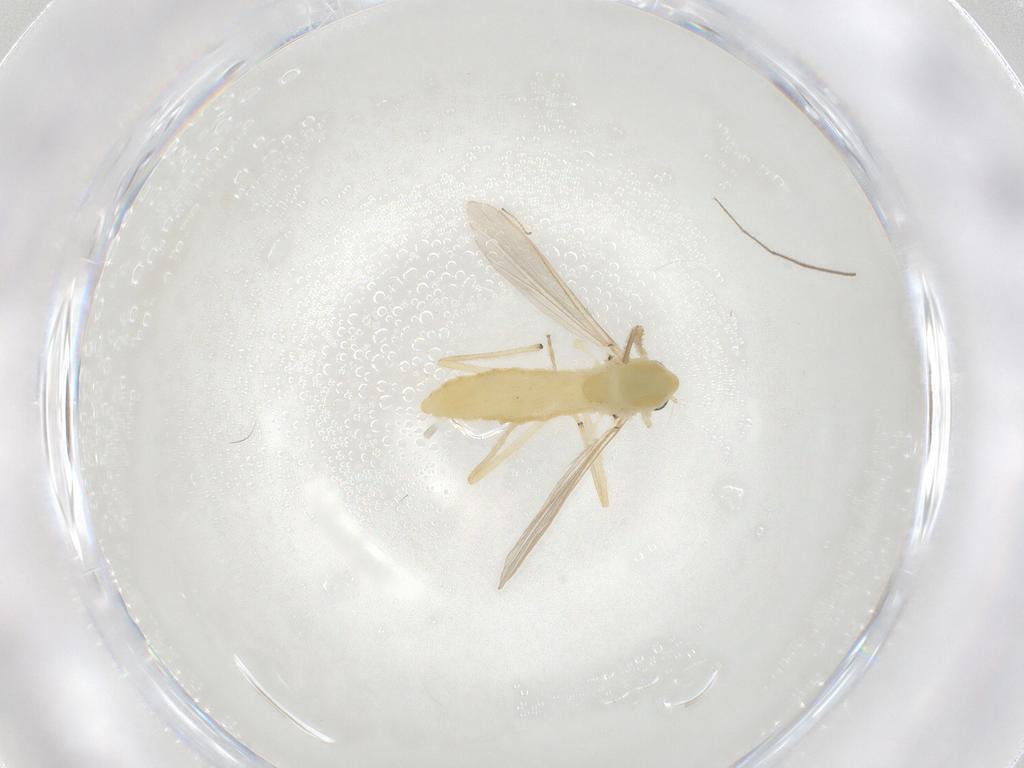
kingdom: Animalia
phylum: Arthropoda
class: Insecta
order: Diptera
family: Chironomidae
